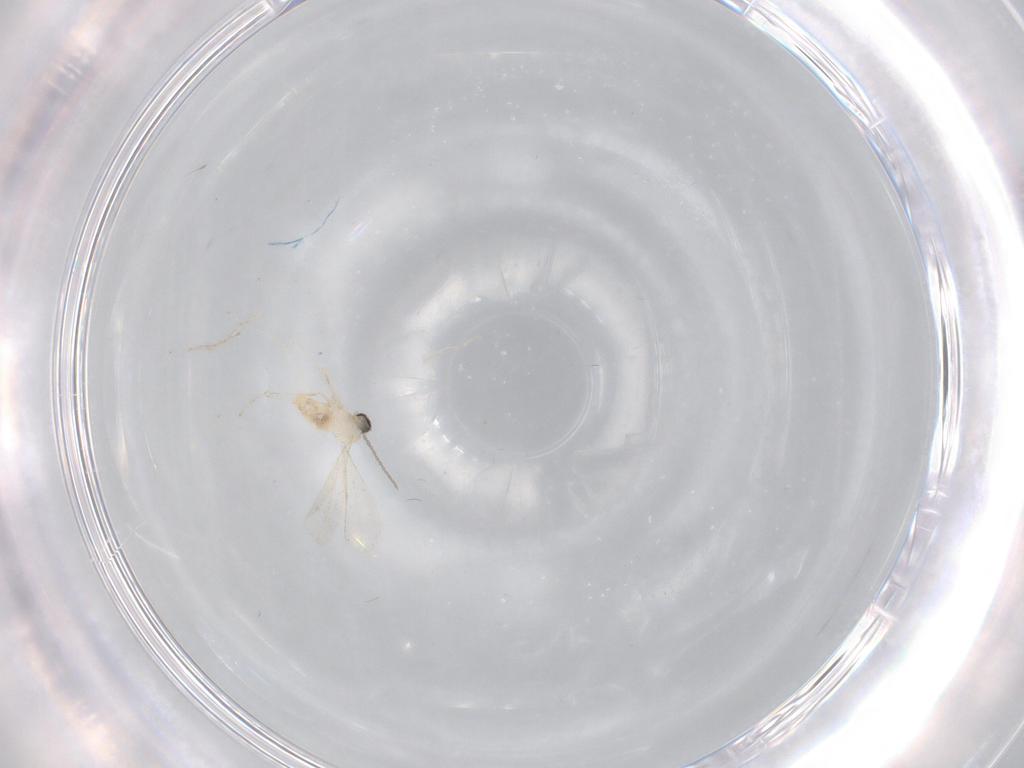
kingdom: Animalia
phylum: Arthropoda
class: Insecta
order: Diptera
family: Cecidomyiidae
